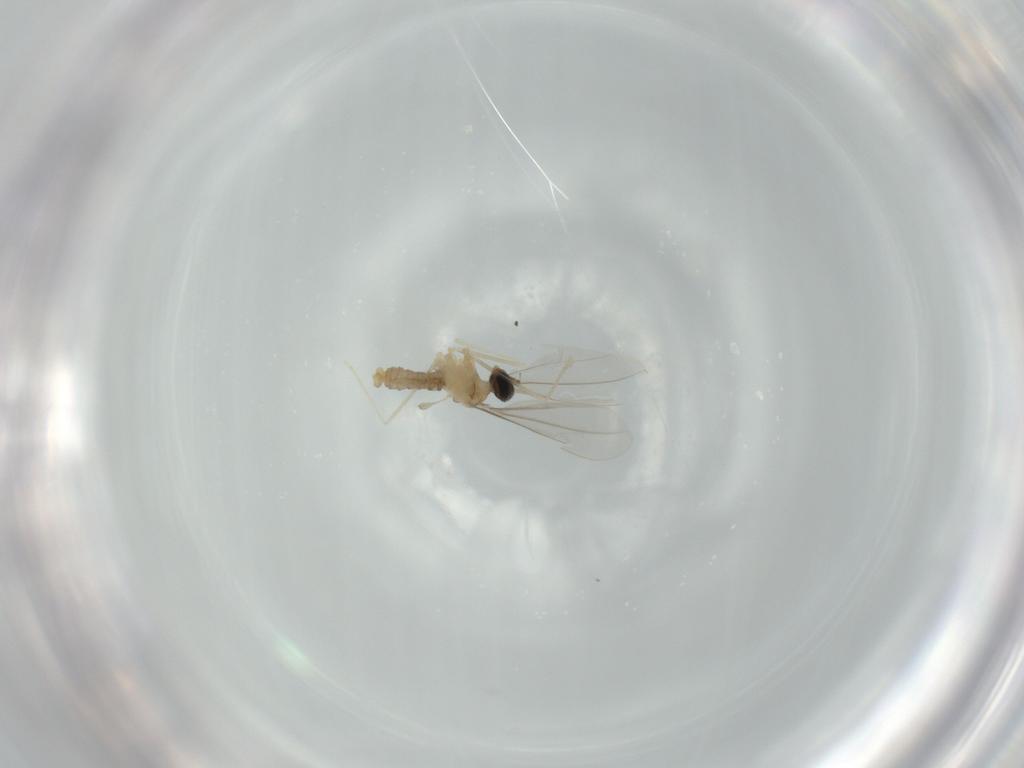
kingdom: Animalia
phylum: Arthropoda
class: Insecta
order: Diptera
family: Cecidomyiidae
